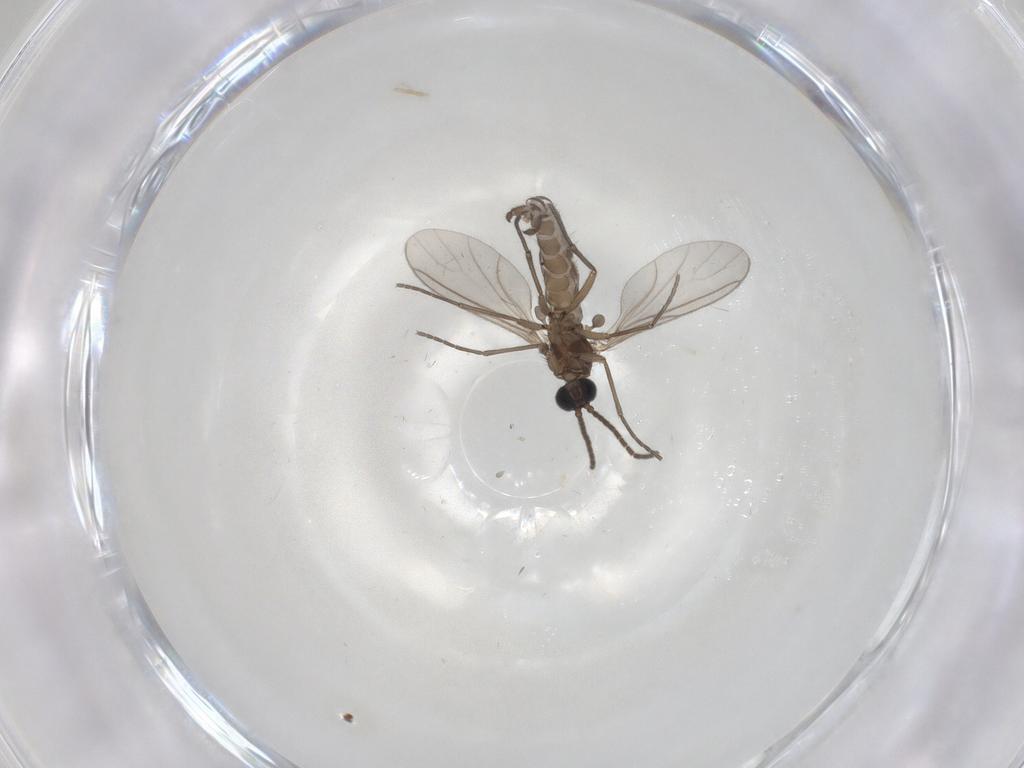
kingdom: Animalia
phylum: Arthropoda
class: Insecta
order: Diptera
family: Sciaridae
